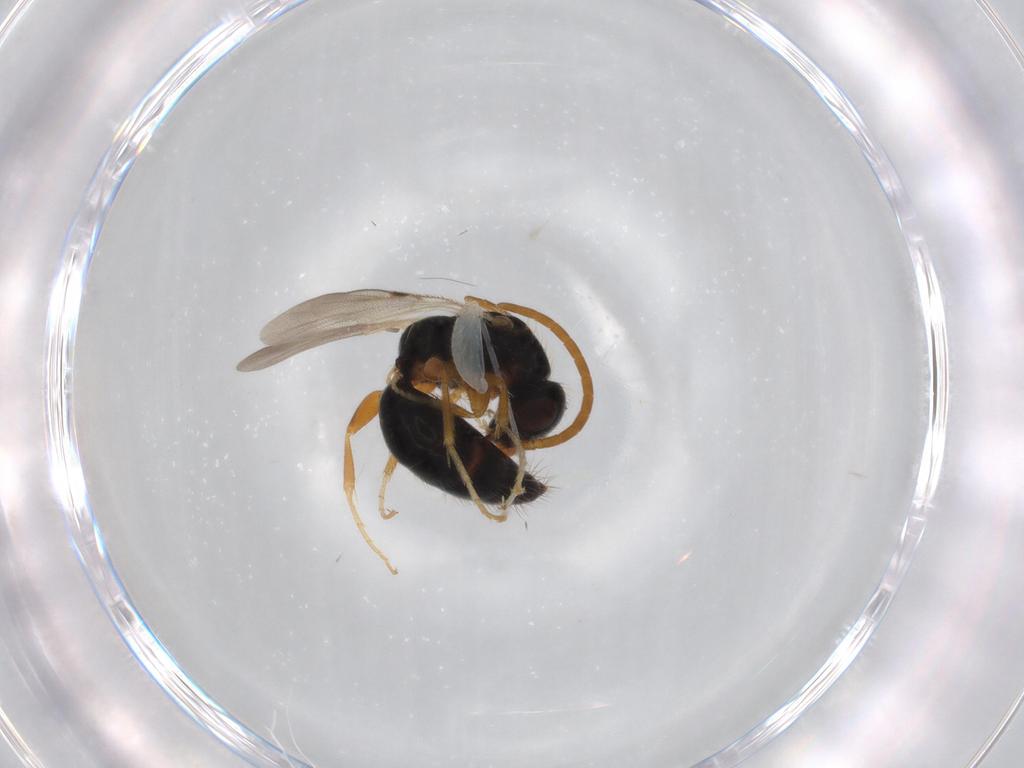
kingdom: Animalia
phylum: Arthropoda
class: Insecta
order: Hymenoptera
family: Bethylidae
